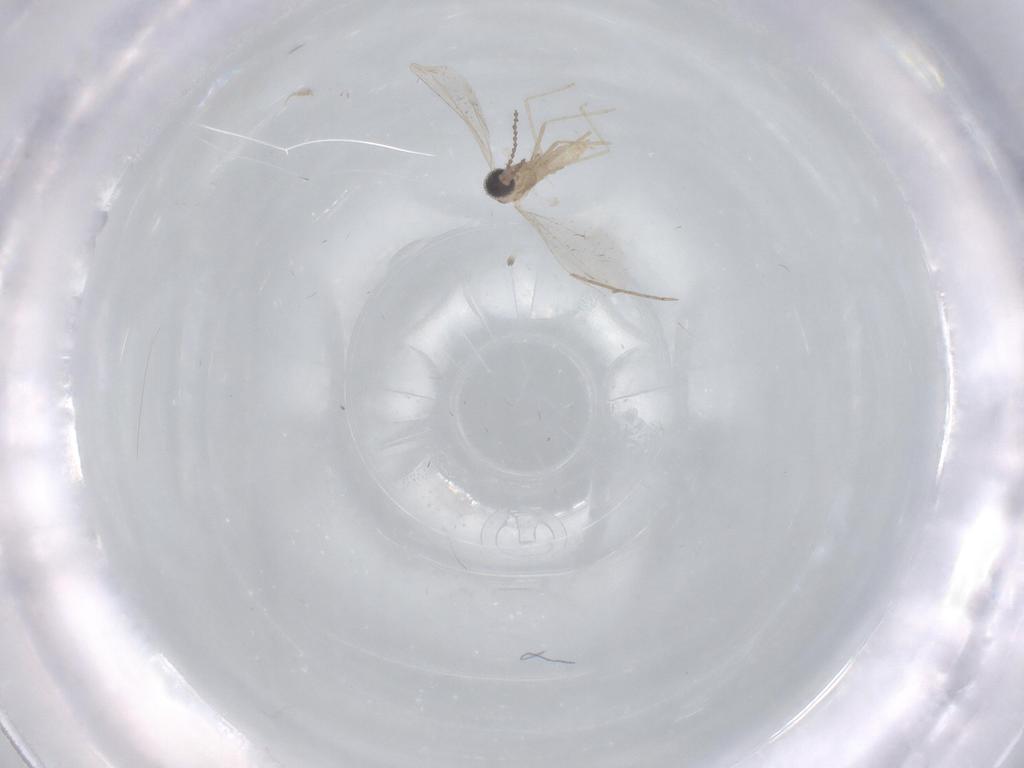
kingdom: Animalia
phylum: Arthropoda
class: Insecta
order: Diptera
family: Cecidomyiidae
